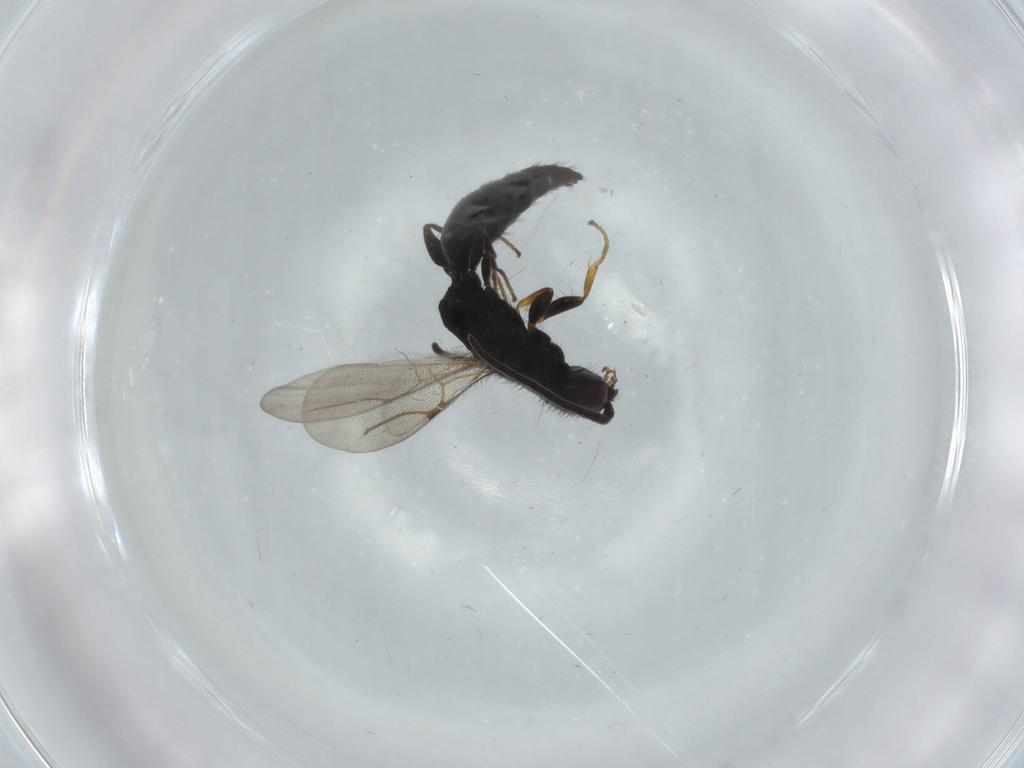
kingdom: Animalia
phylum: Arthropoda
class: Insecta
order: Hymenoptera
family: Bethylidae
